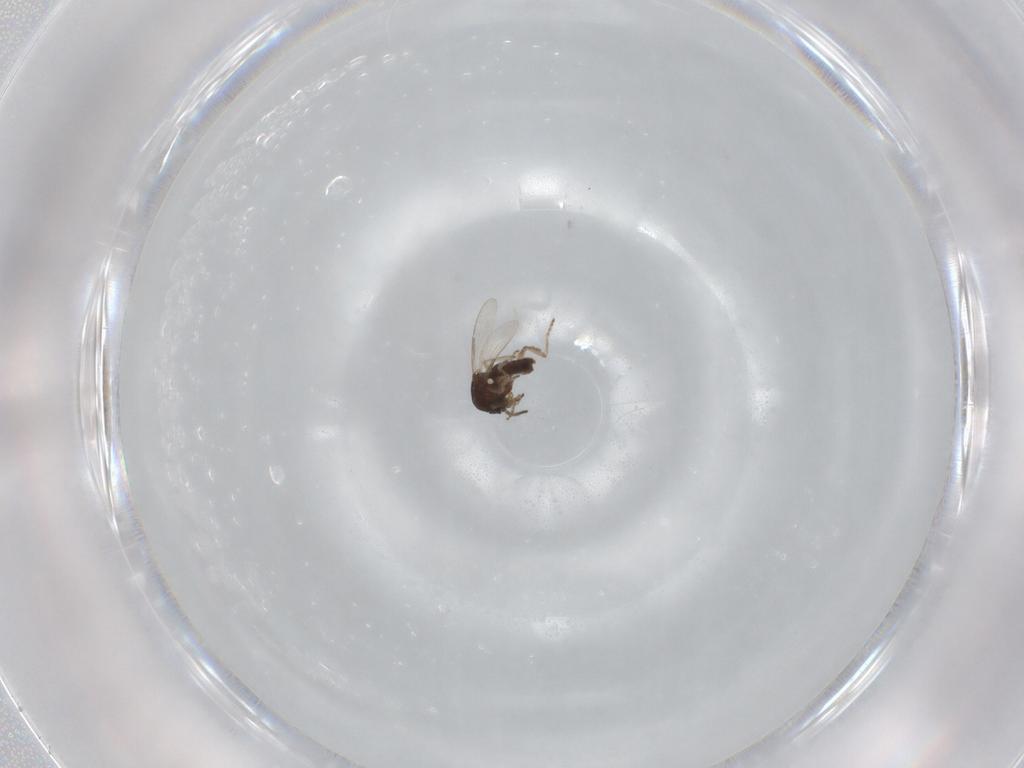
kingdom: Animalia
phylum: Arthropoda
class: Insecta
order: Diptera
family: Ceratopogonidae
